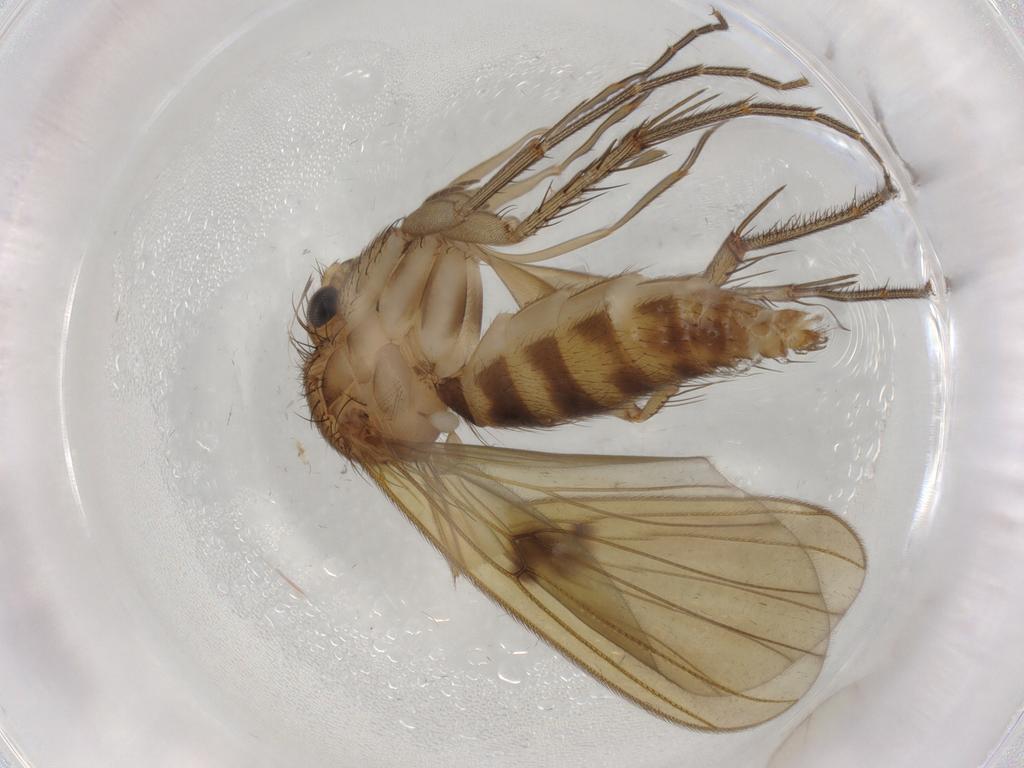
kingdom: Animalia
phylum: Arthropoda
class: Insecta
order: Diptera
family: Mycetophilidae
